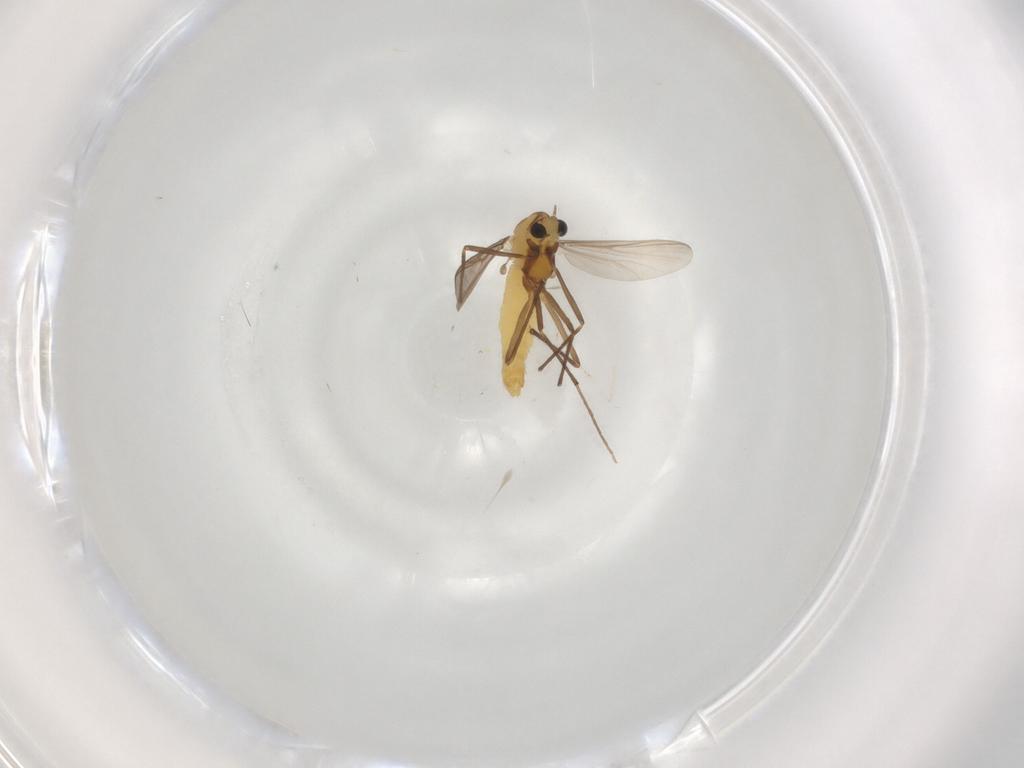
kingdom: Animalia
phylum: Arthropoda
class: Insecta
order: Diptera
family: Chironomidae
